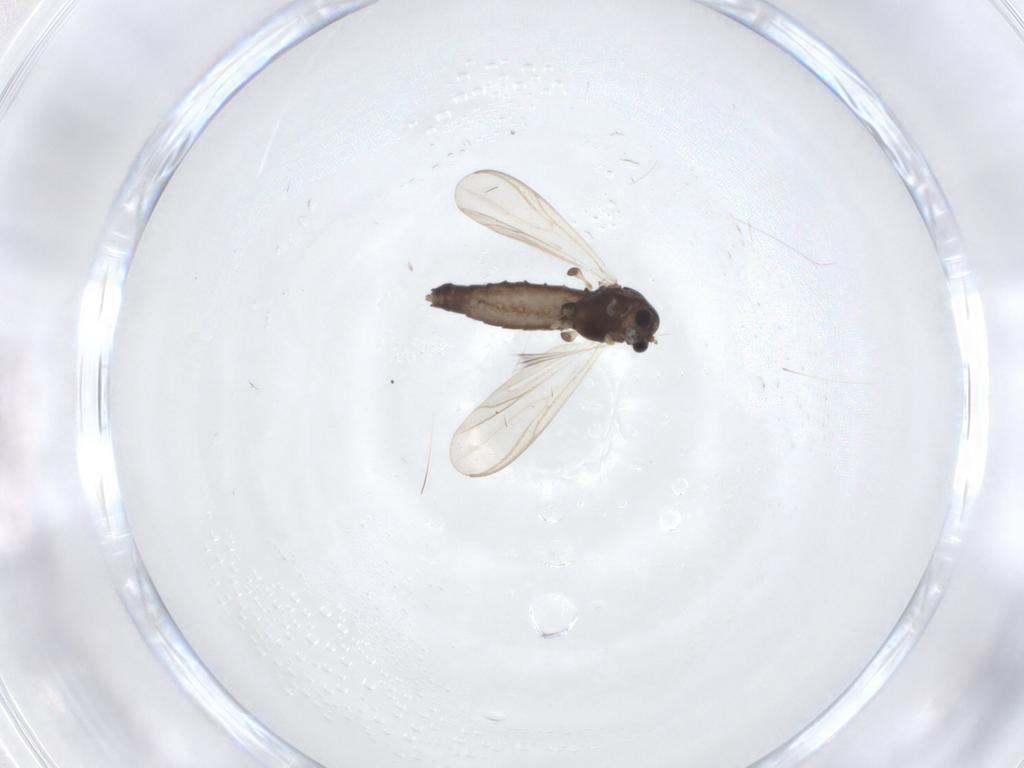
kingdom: Animalia
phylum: Arthropoda
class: Insecta
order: Diptera
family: Chironomidae
